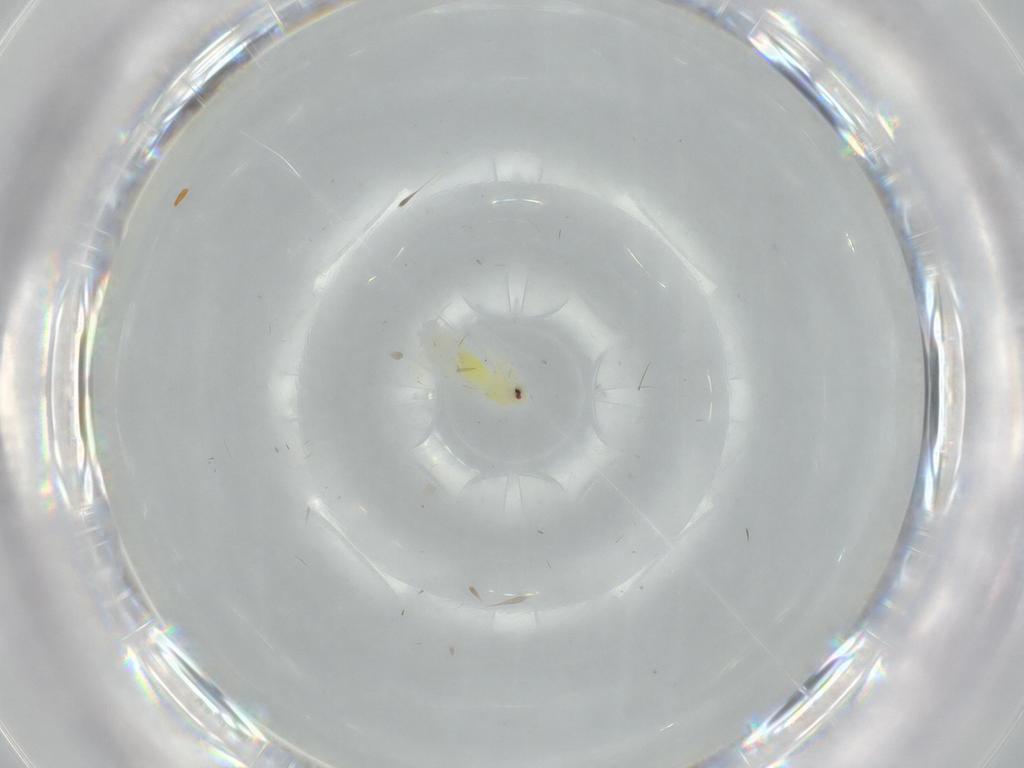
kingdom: Animalia
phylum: Arthropoda
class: Insecta
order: Hemiptera
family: Aleyrodidae
